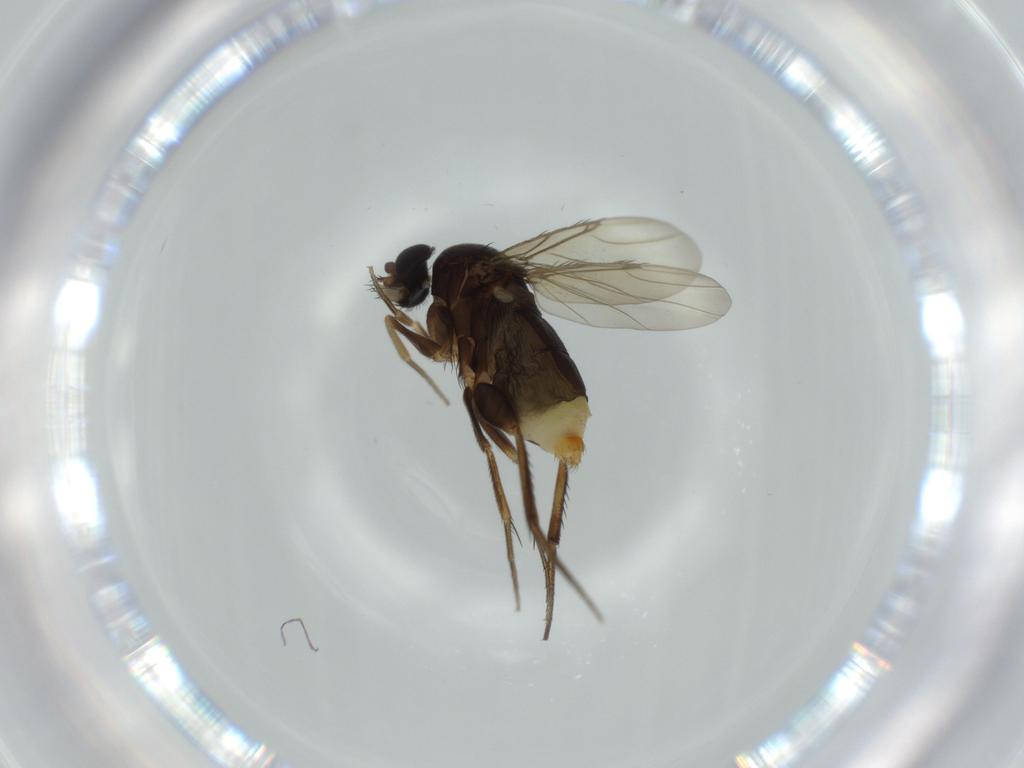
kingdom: Animalia
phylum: Arthropoda
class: Insecta
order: Diptera
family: Phoridae
